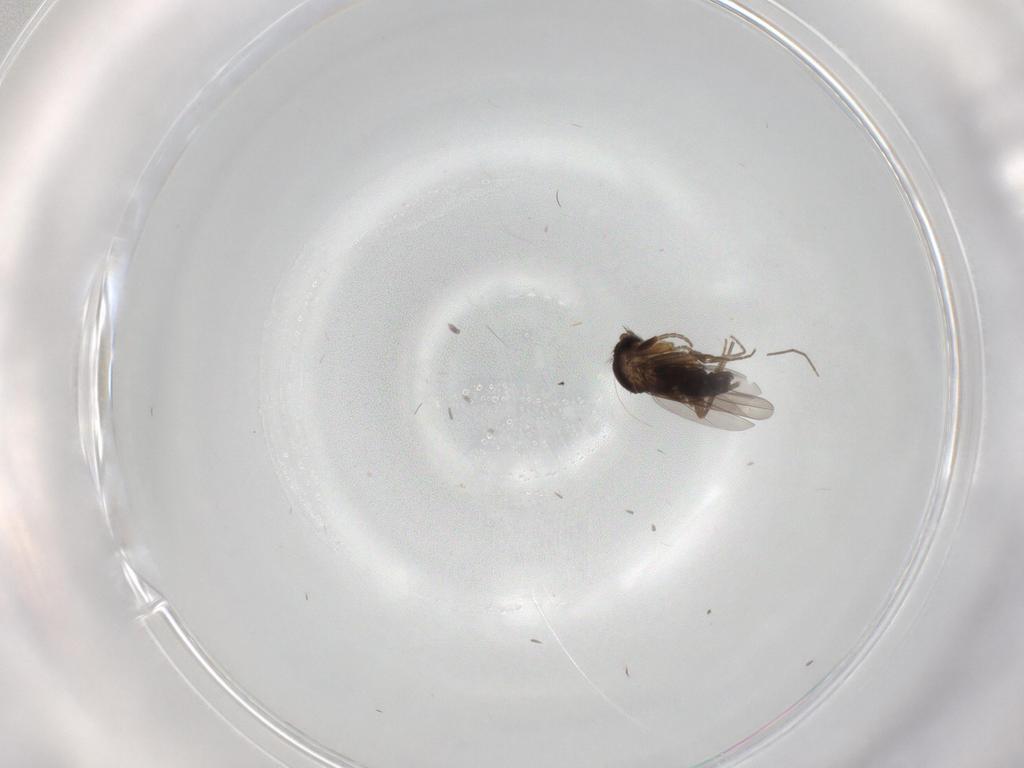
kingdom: Animalia
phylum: Arthropoda
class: Insecta
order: Diptera
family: Phoridae
